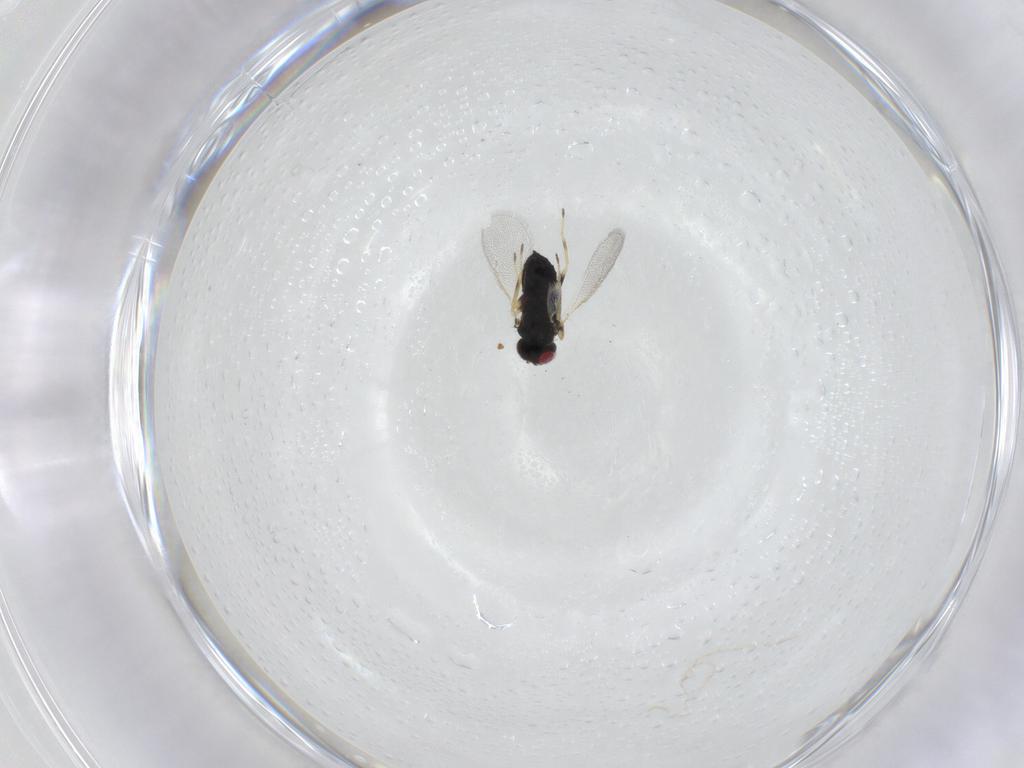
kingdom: Animalia
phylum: Arthropoda
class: Insecta
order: Hymenoptera
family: Eulophidae
